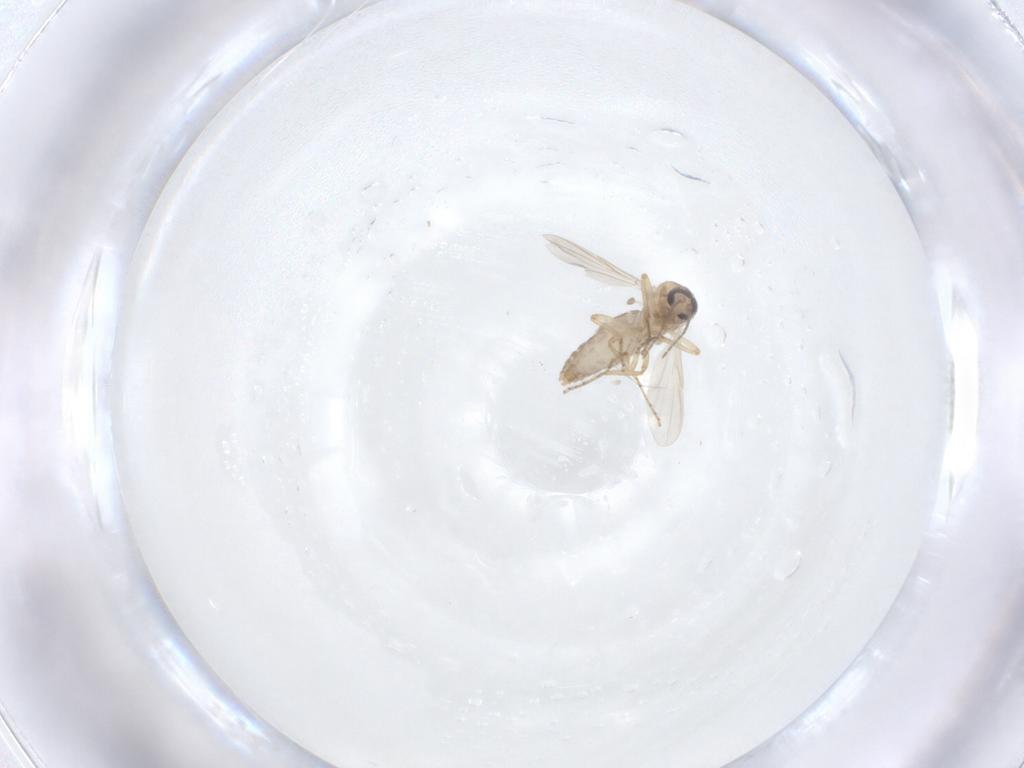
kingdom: Animalia
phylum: Arthropoda
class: Insecta
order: Diptera
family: Ceratopogonidae
